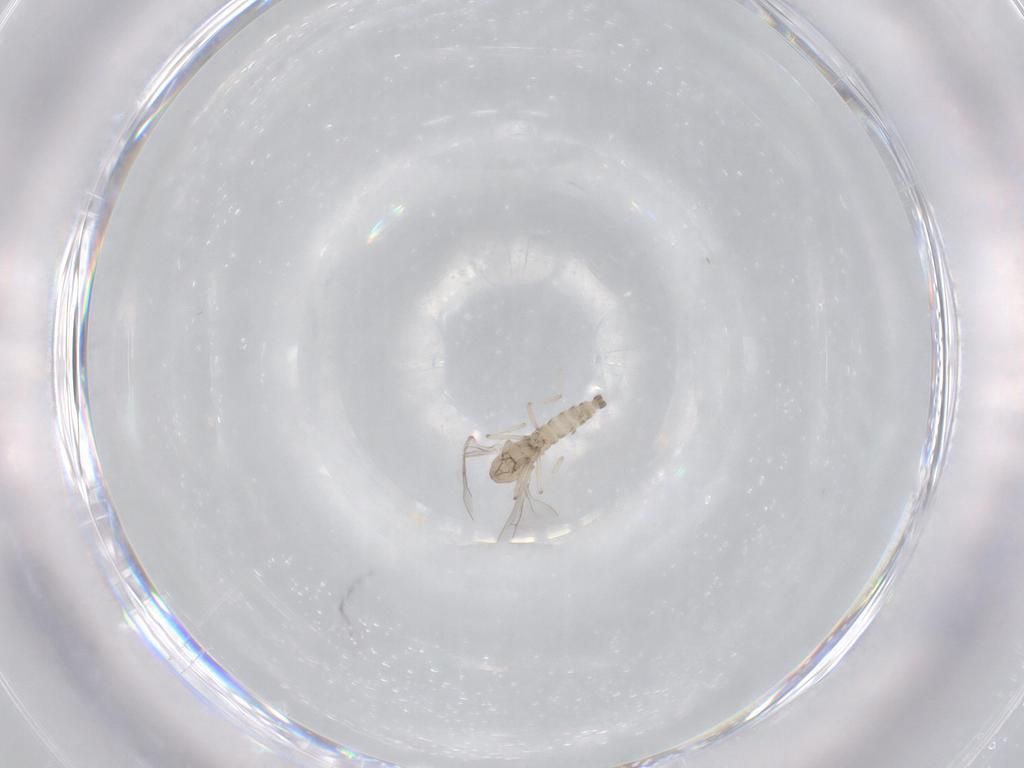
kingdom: Animalia
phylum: Arthropoda
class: Insecta
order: Diptera
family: Cecidomyiidae
